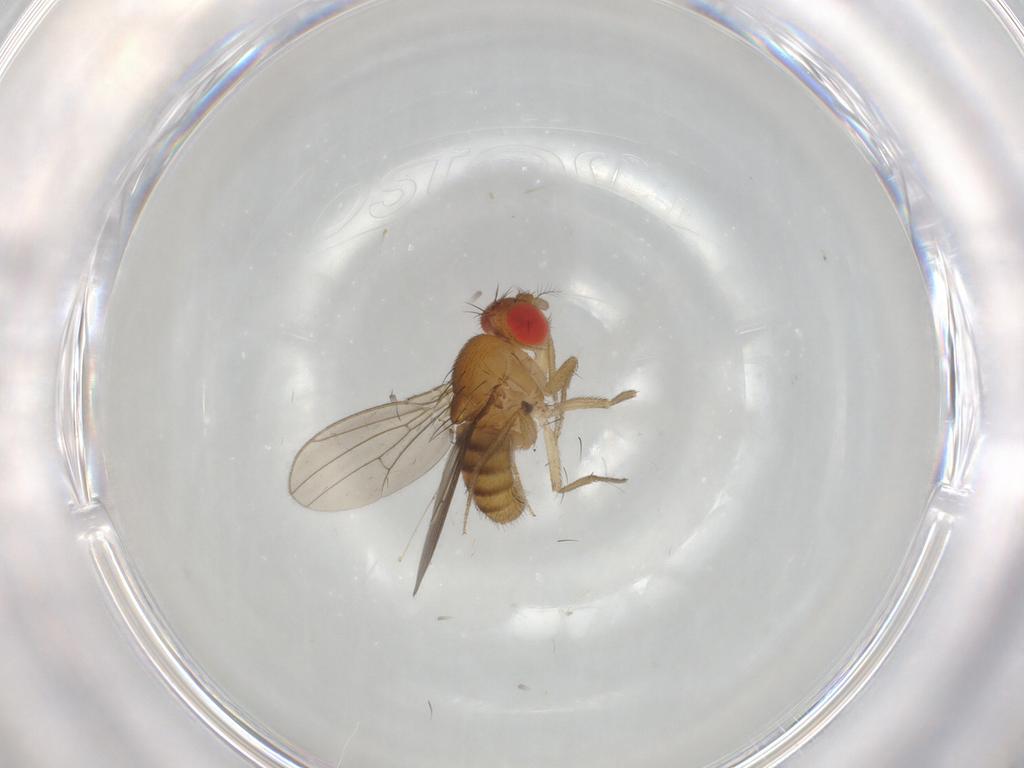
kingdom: Animalia
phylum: Arthropoda
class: Insecta
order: Diptera
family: Drosophilidae
